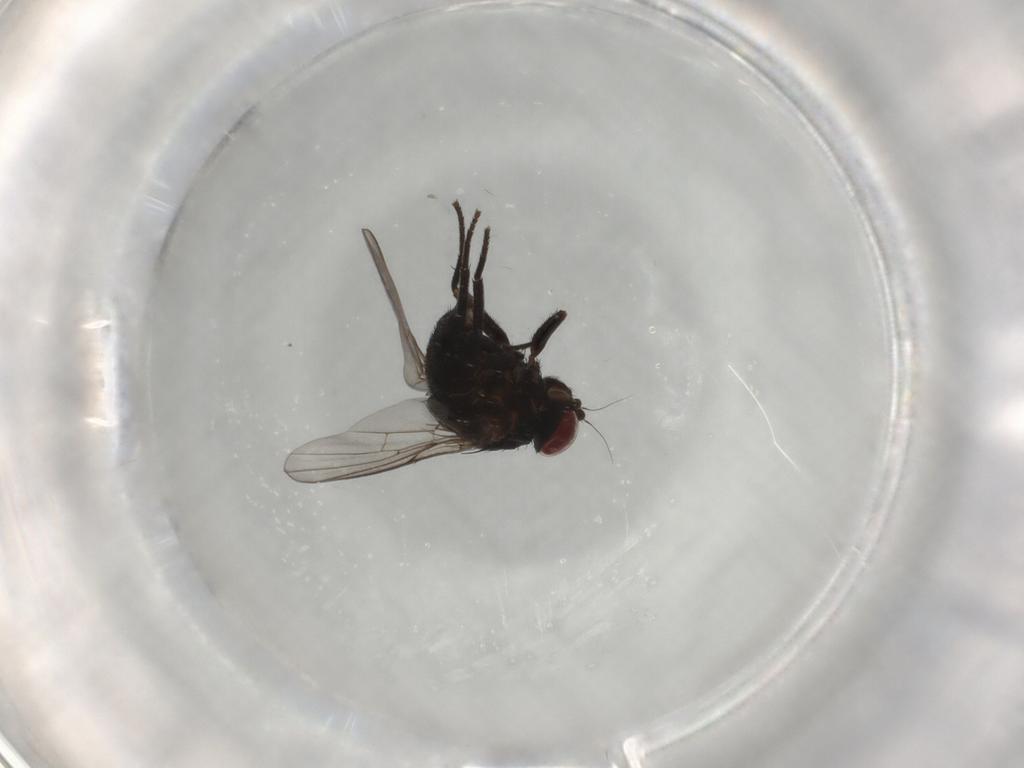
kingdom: Animalia
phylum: Arthropoda
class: Insecta
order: Diptera
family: Agromyzidae
